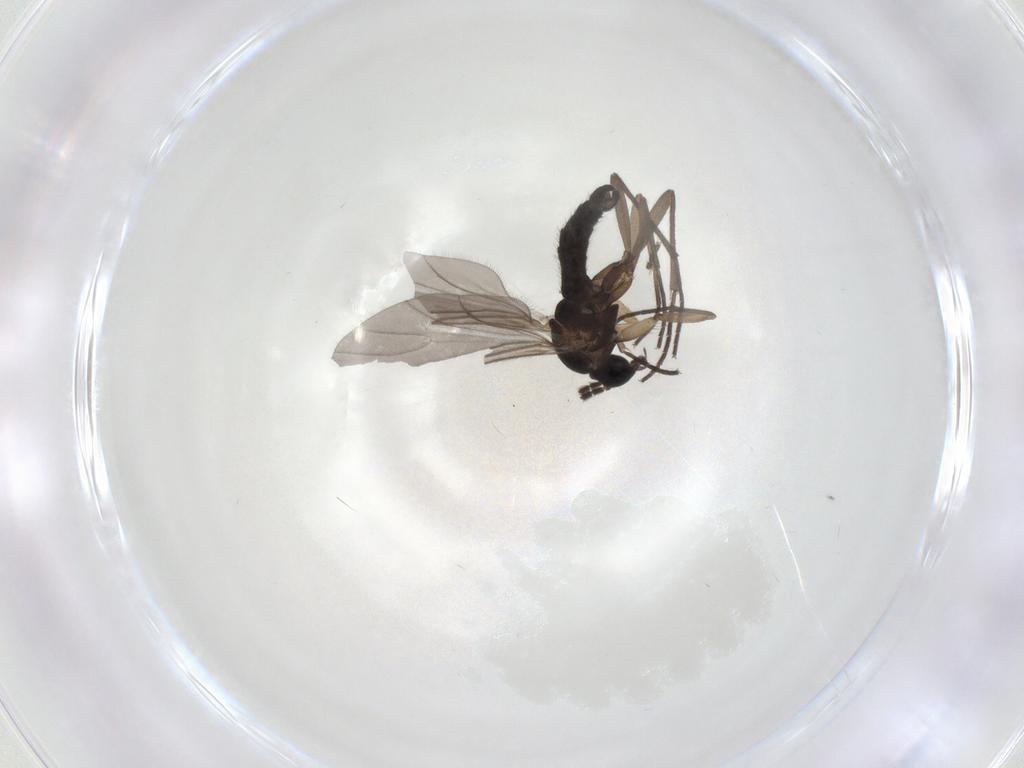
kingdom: Animalia
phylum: Arthropoda
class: Insecta
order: Diptera
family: Sciaridae
